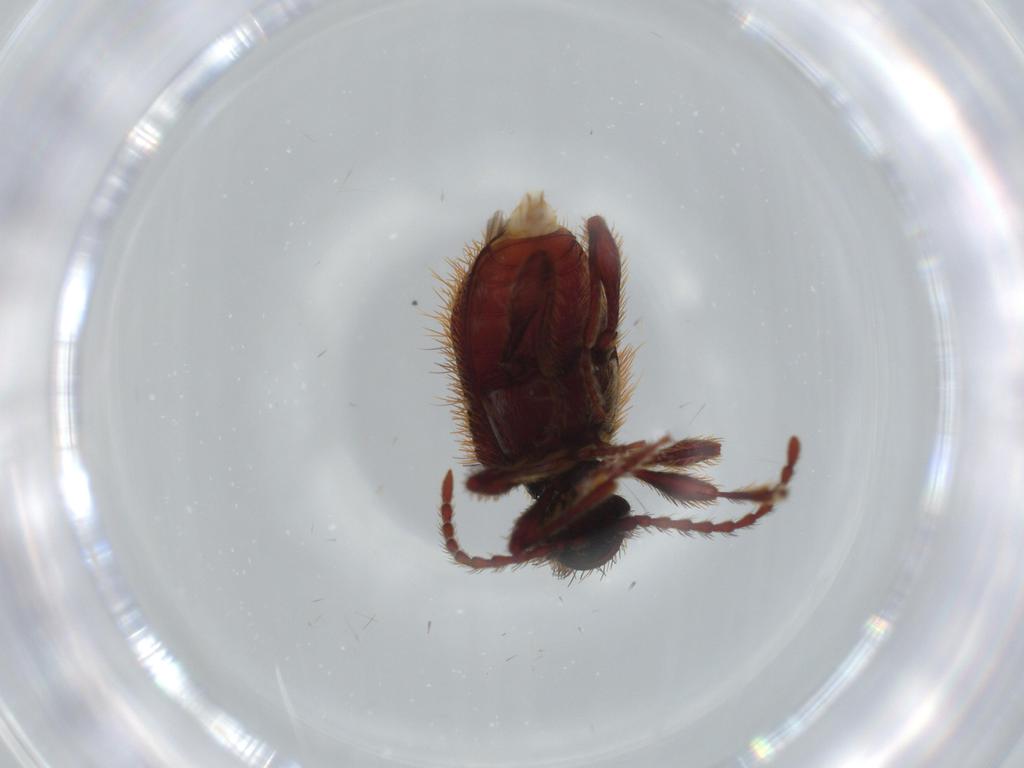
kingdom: Animalia
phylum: Arthropoda
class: Insecta
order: Coleoptera
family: Ptinidae
